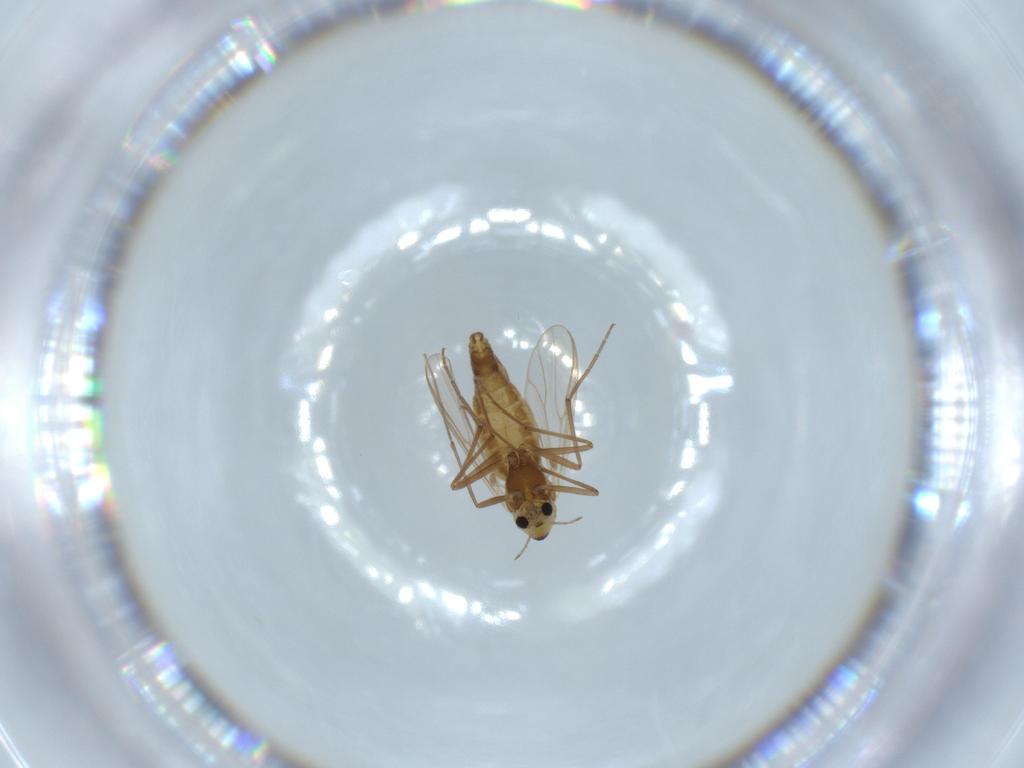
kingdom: Animalia
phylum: Arthropoda
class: Insecta
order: Diptera
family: Chironomidae
